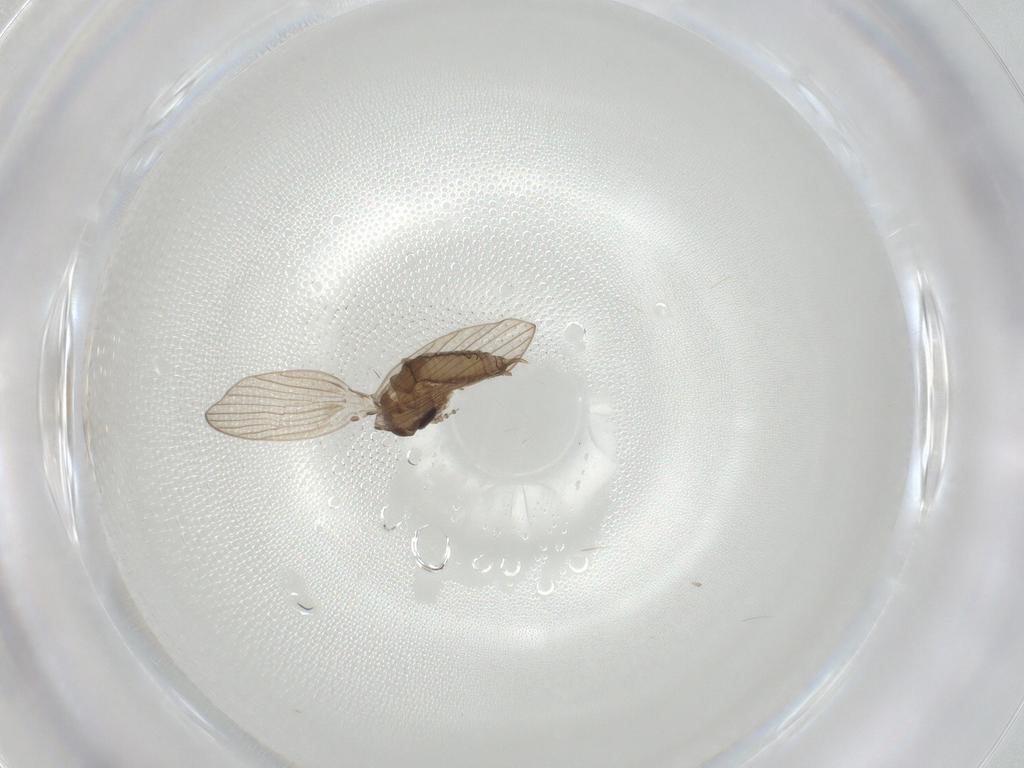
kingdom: Animalia
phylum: Arthropoda
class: Insecta
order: Diptera
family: Psychodidae
